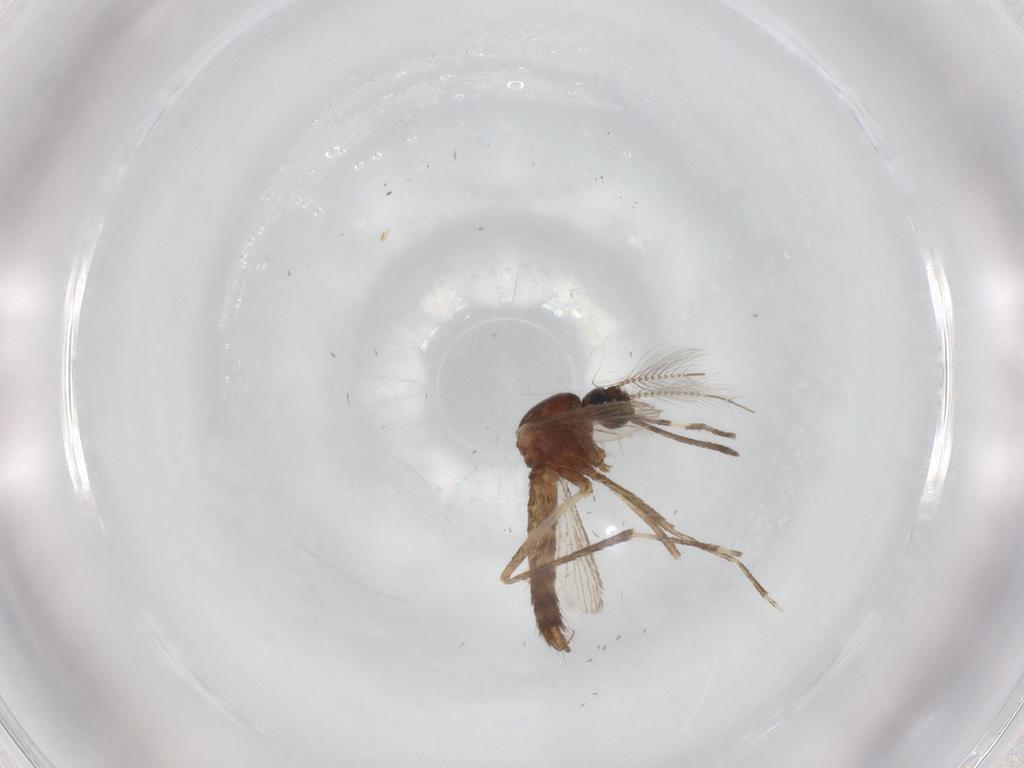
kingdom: Animalia
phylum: Arthropoda
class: Insecta
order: Diptera
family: Culicidae
